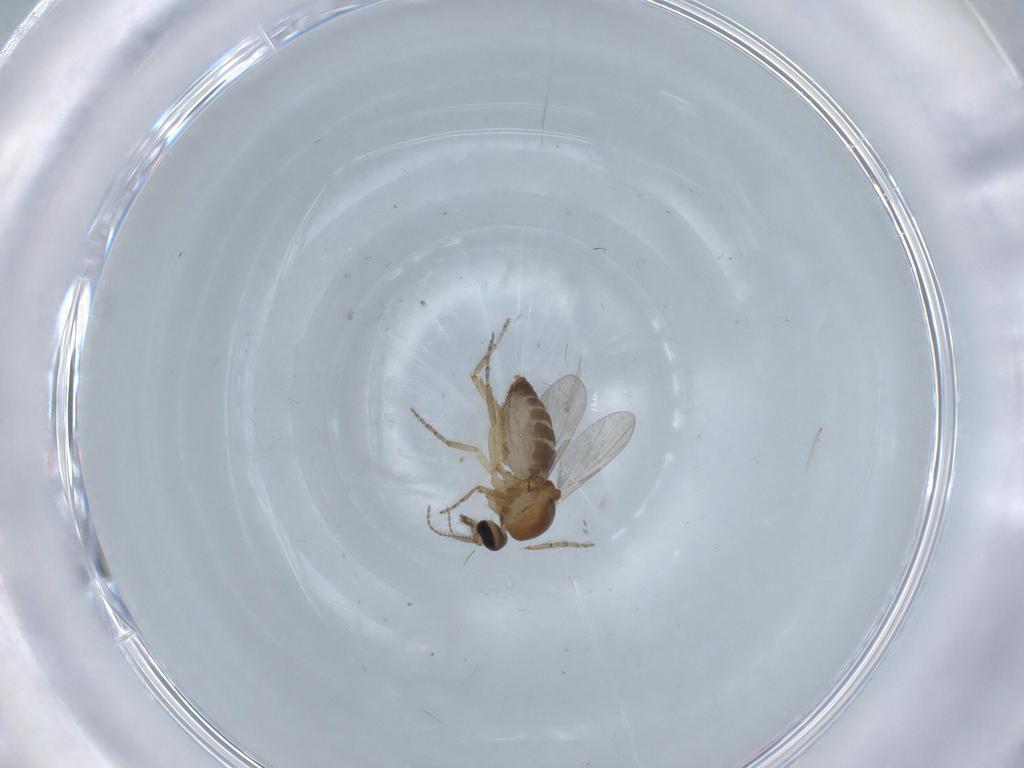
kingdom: Animalia
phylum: Arthropoda
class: Insecta
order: Diptera
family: Ceratopogonidae
